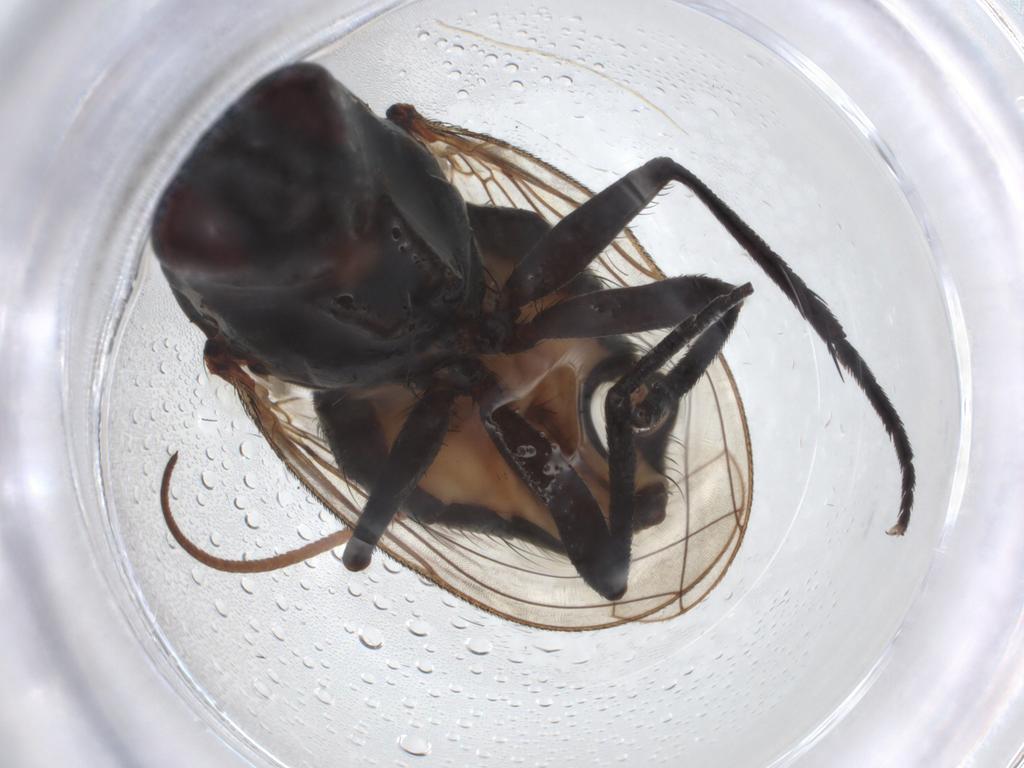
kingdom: Animalia
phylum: Arthropoda
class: Insecta
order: Diptera
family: Anthomyiidae
